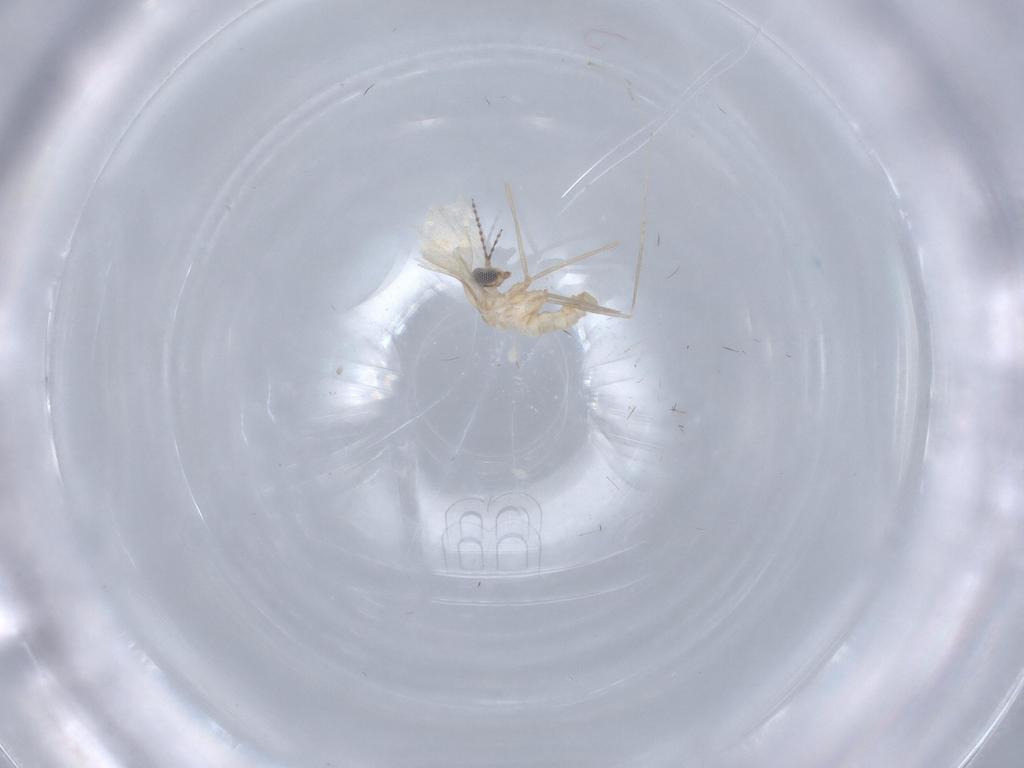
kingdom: Animalia
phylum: Arthropoda
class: Insecta
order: Diptera
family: Cecidomyiidae
